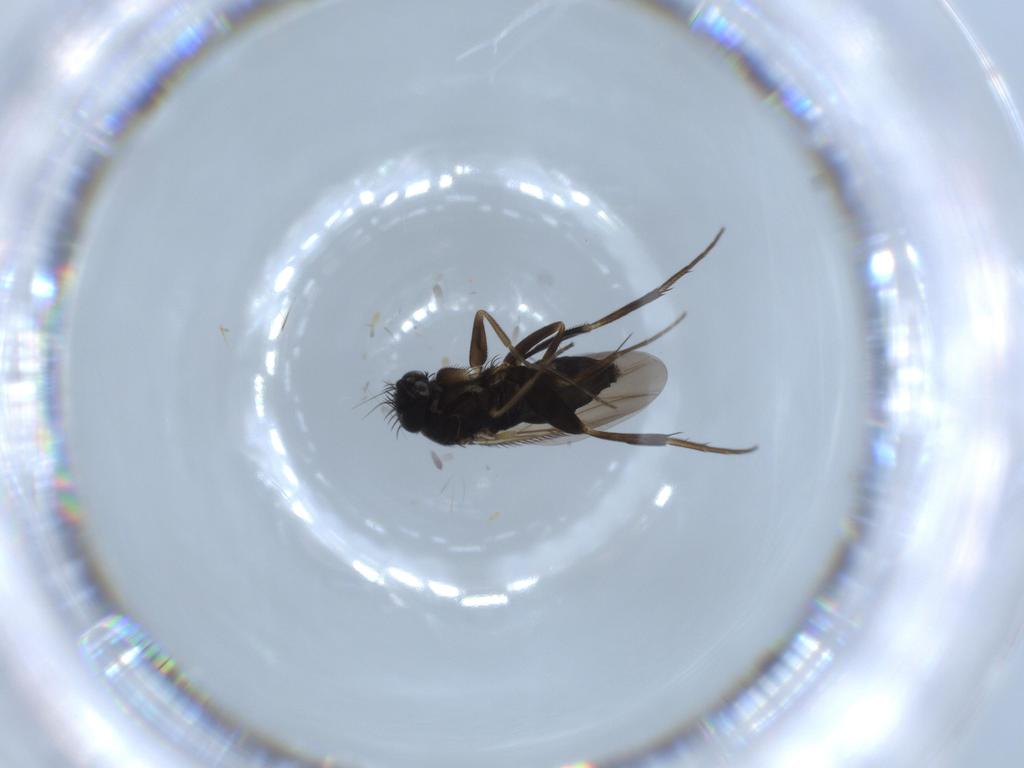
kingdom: Animalia
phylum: Arthropoda
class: Insecta
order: Diptera
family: Phoridae
